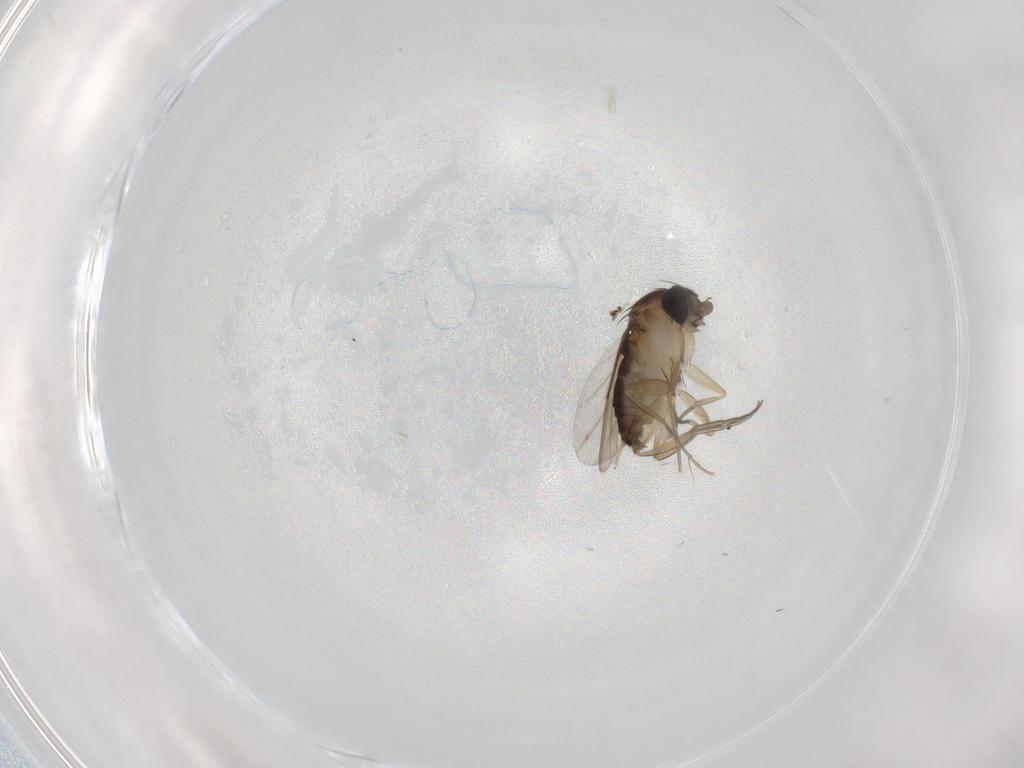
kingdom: Animalia
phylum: Arthropoda
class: Insecta
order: Diptera
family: Phoridae
